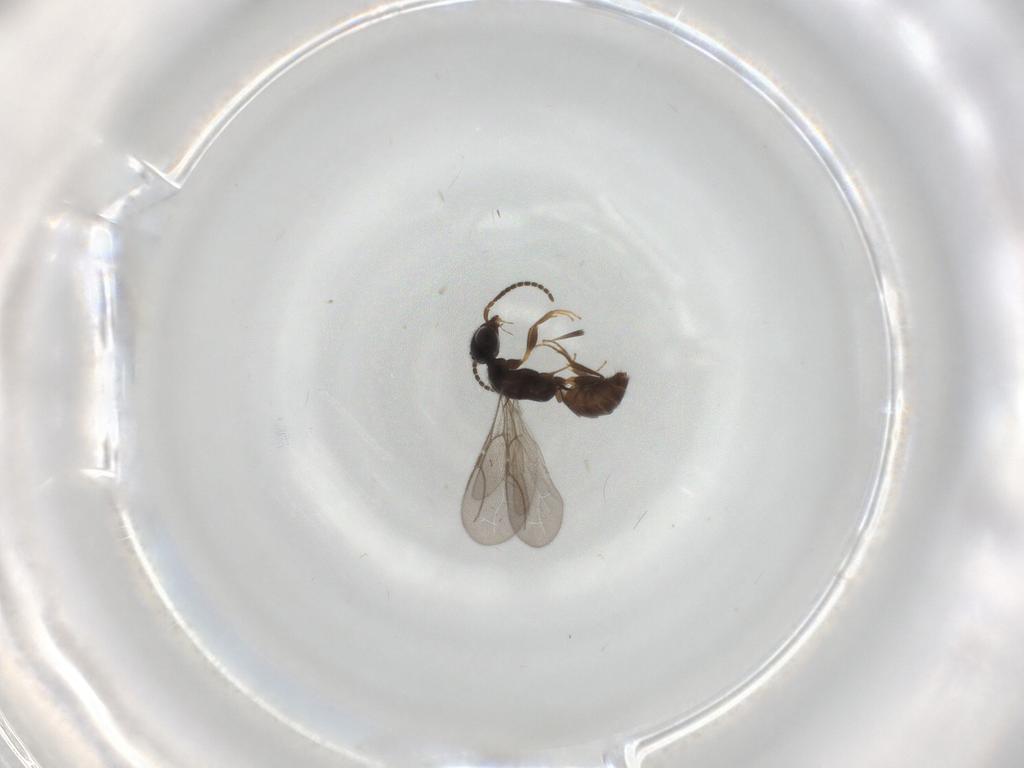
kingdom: Animalia
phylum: Arthropoda
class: Insecta
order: Hymenoptera
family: Bethylidae
